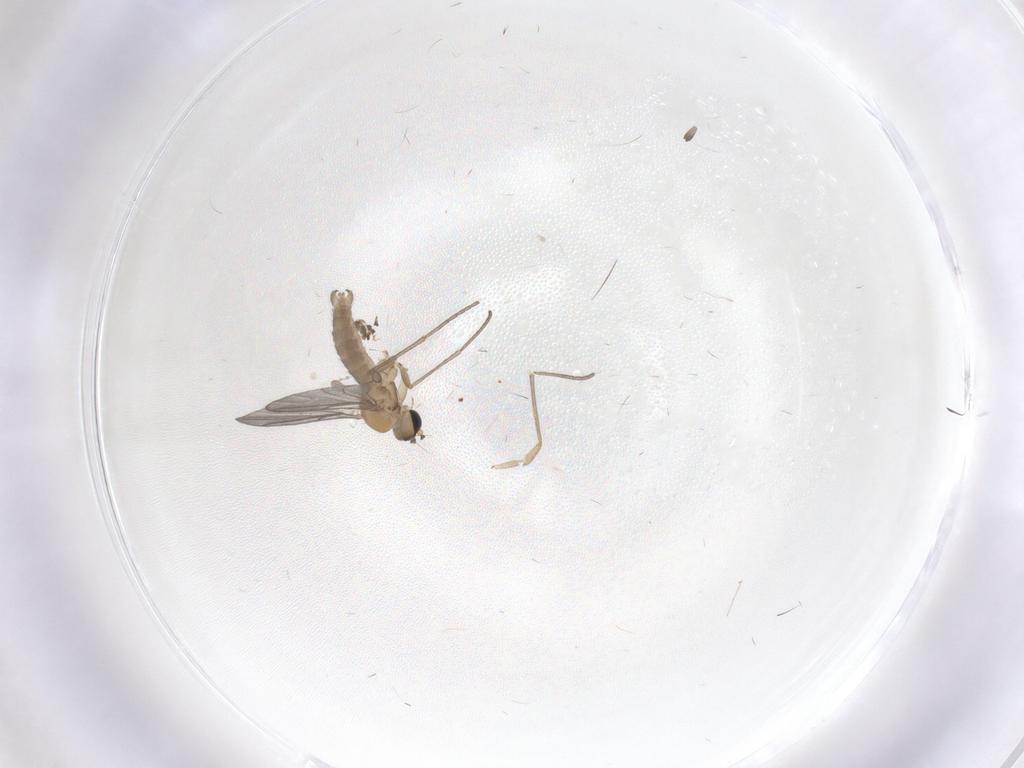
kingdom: Animalia
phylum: Arthropoda
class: Insecta
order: Diptera
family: Sciaridae
